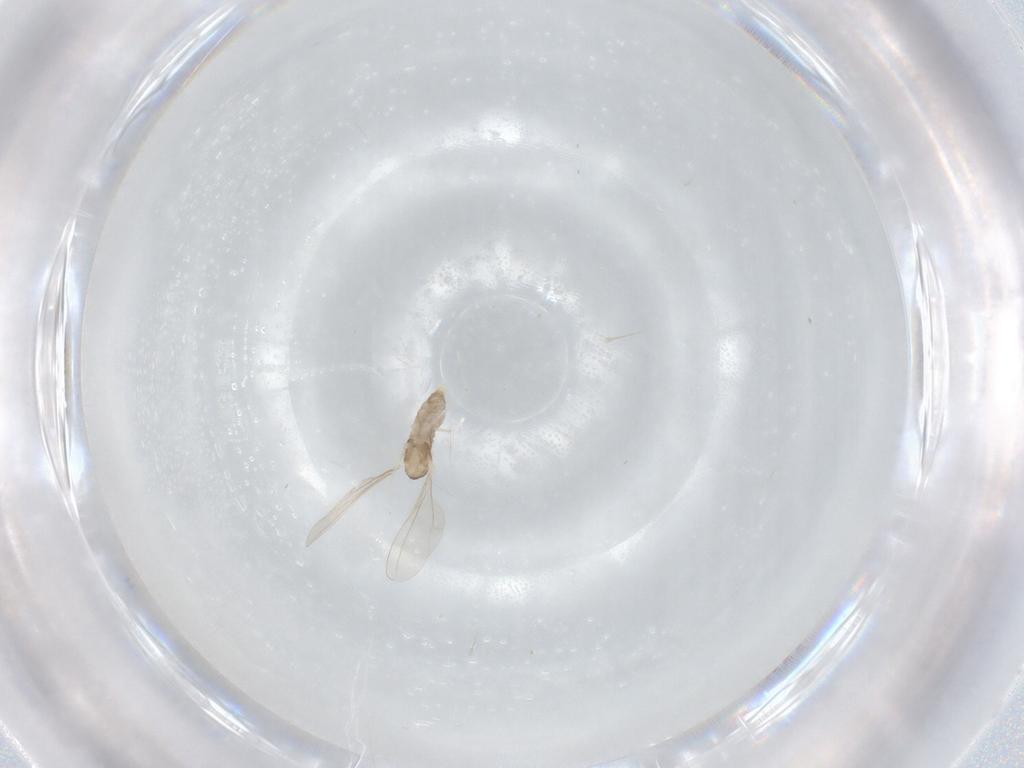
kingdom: Animalia
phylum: Arthropoda
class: Insecta
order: Diptera
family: Cecidomyiidae
